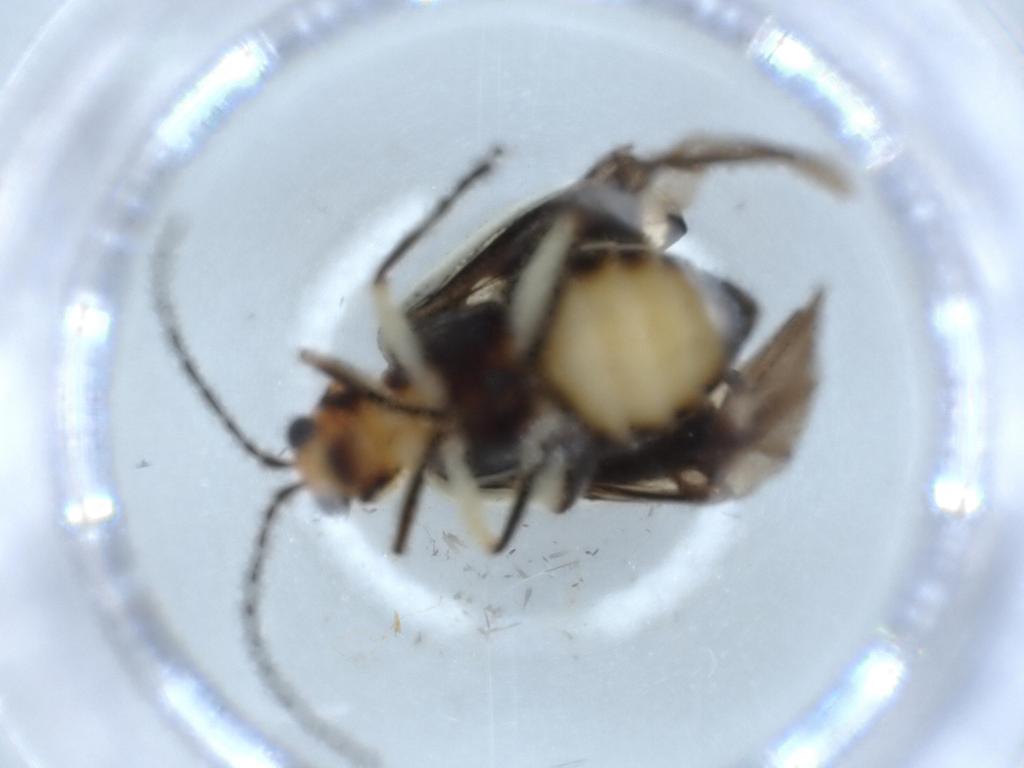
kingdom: Animalia
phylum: Arthropoda
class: Insecta
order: Coleoptera
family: Chrysomelidae
